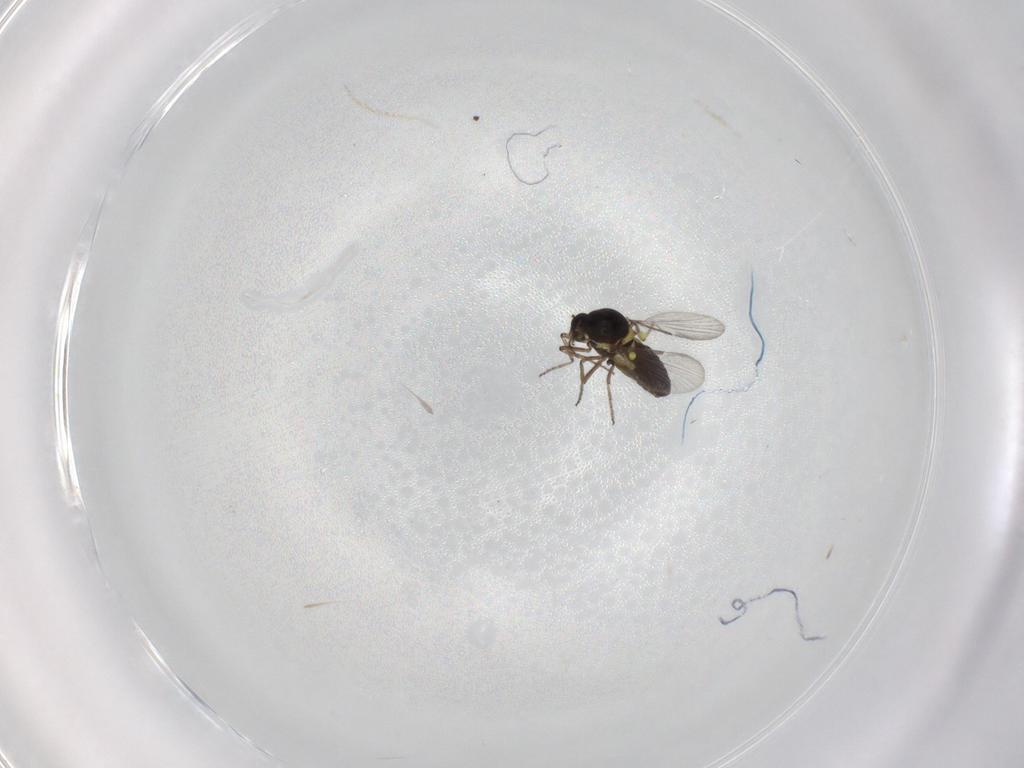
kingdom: Animalia
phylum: Arthropoda
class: Insecta
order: Diptera
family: Ceratopogonidae
